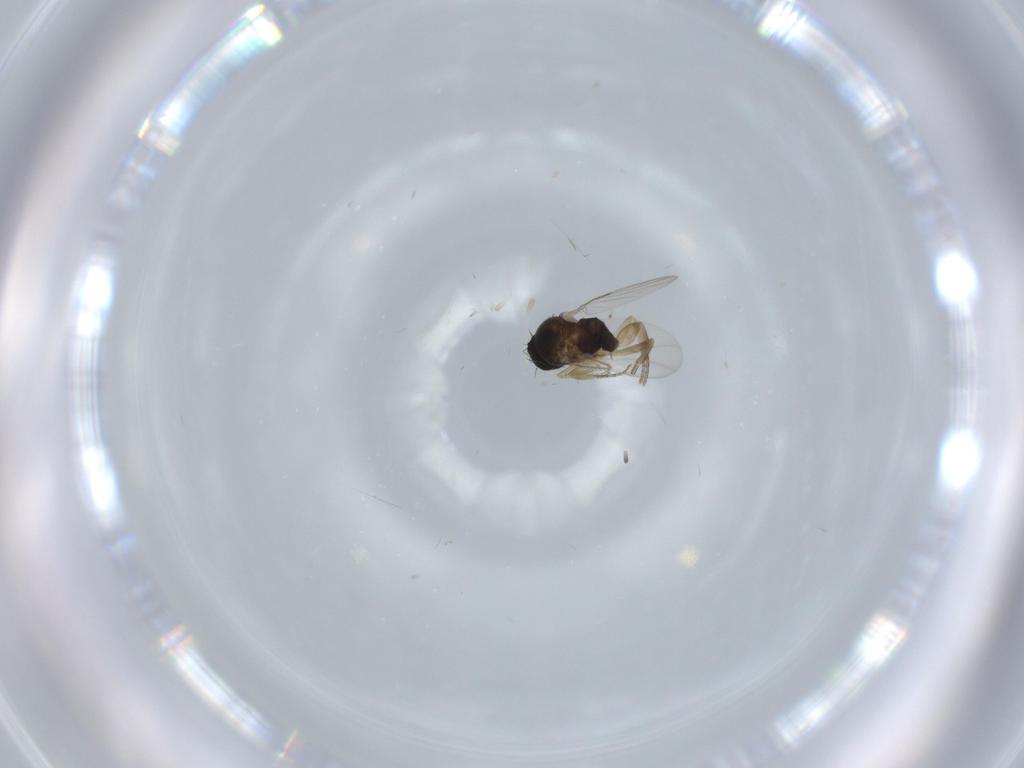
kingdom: Animalia
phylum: Arthropoda
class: Insecta
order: Diptera
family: Phoridae
